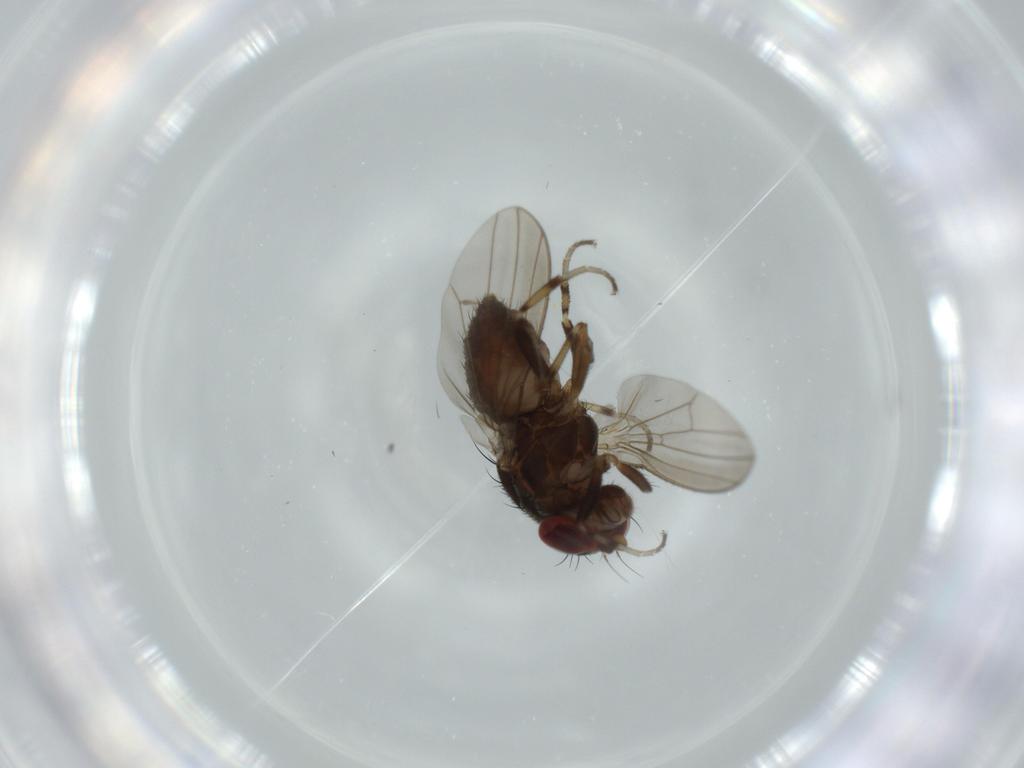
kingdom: Animalia
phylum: Arthropoda
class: Insecta
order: Diptera
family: Heleomyzidae
